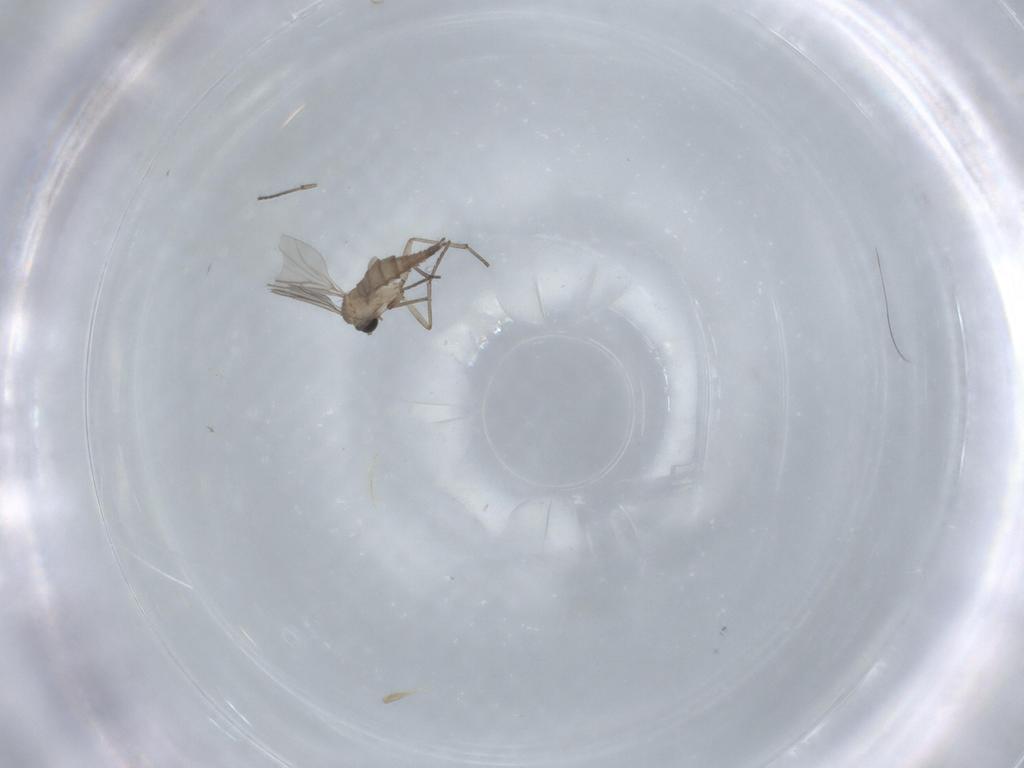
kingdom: Animalia
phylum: Arthropoda
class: Insecta
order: Diptera
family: Sciaridae
